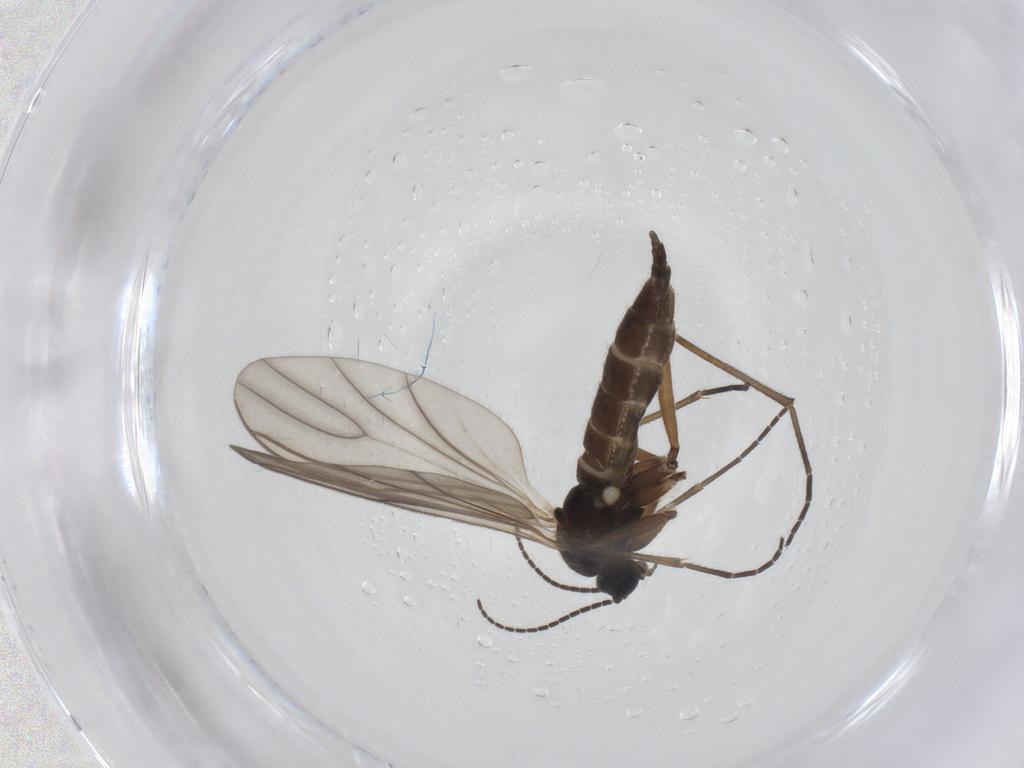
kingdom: Animalia
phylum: Arthropoda
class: Insecta
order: Diptera
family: Sciaridae
